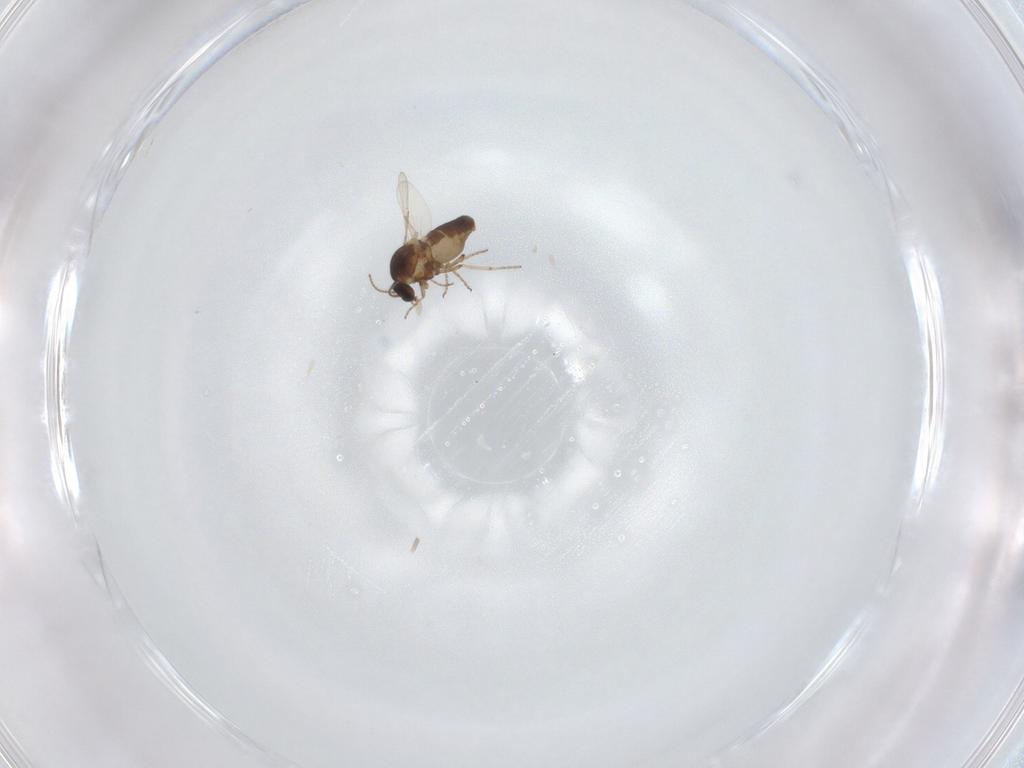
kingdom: Animalia
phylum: Arthropoda
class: Insecta
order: Diptera
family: Ceratopogonidae
